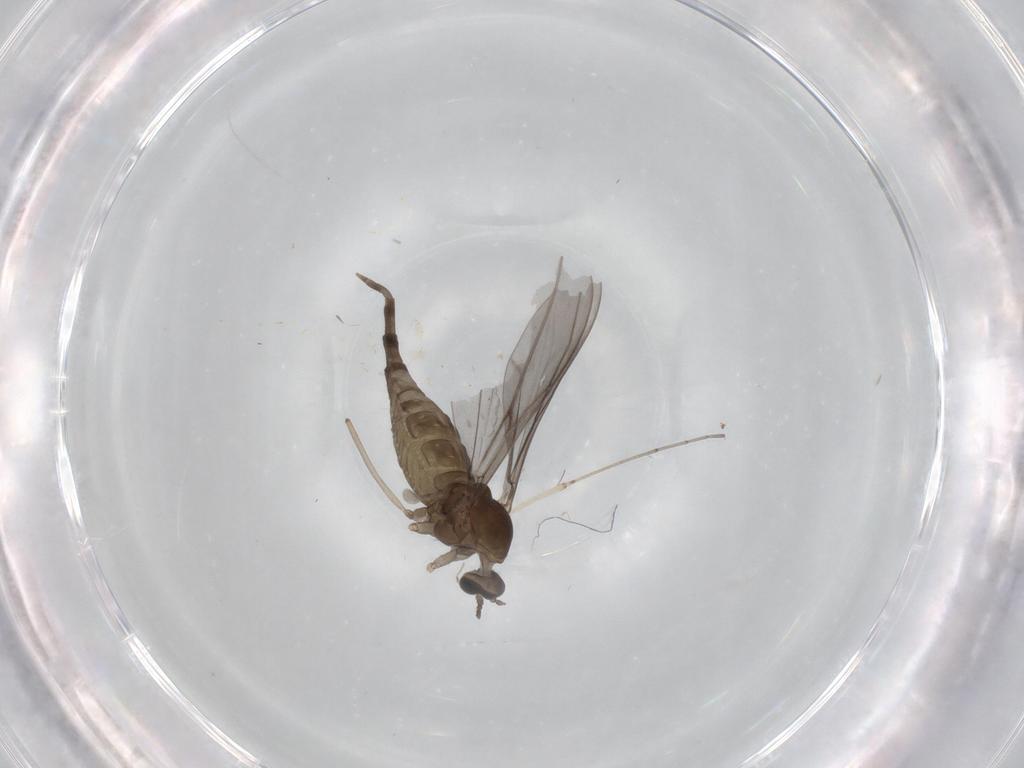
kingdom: Animalia
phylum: Arthropoda
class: Insecta
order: Diptera
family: Cecidomyiidae
